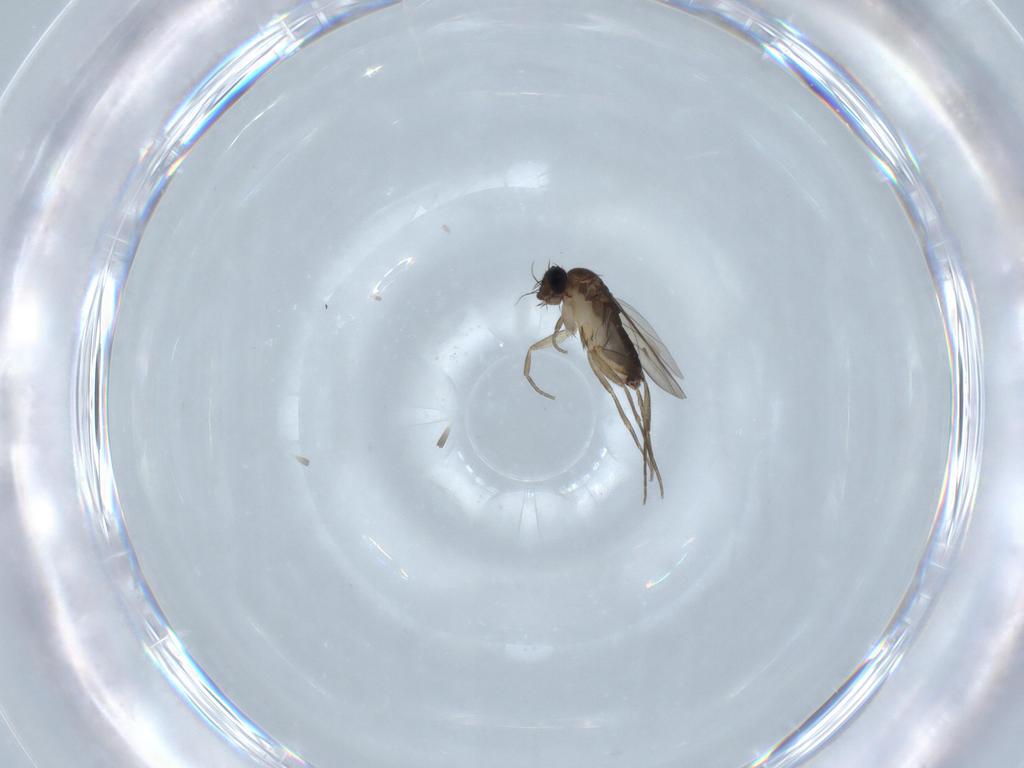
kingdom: Animalia
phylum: Arthropoda
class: Insecta
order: Diptera
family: Phoridae
